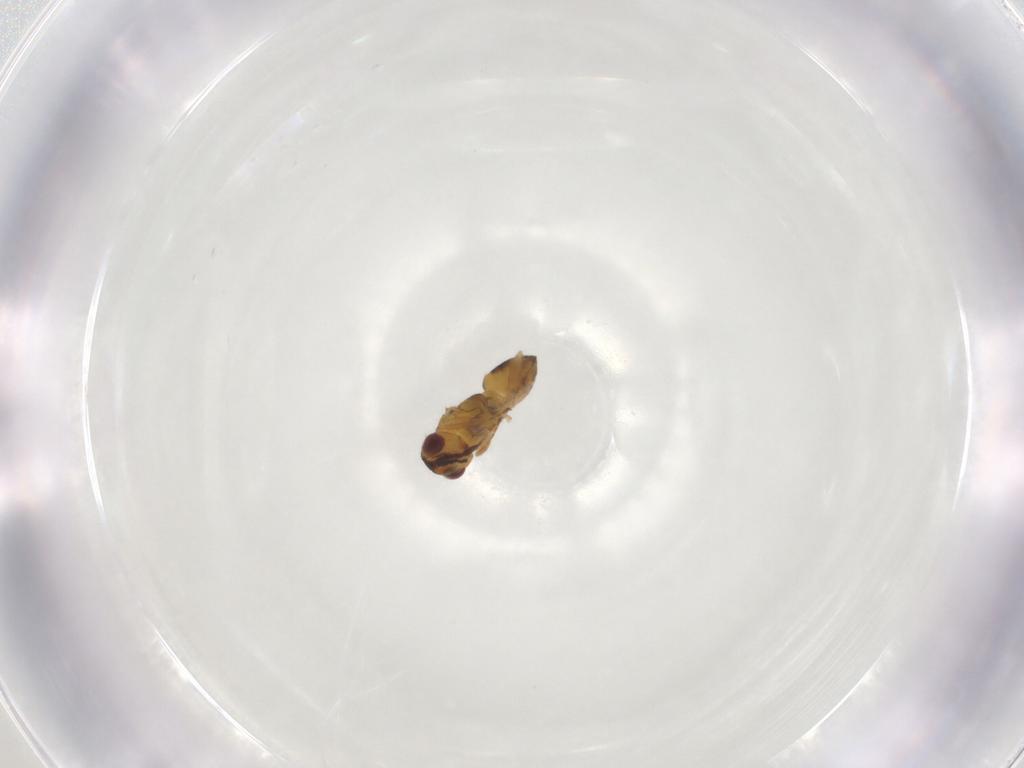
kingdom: Animalia
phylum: Arthropoda
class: Insecta
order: Hymenoptera
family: Eulophidae
